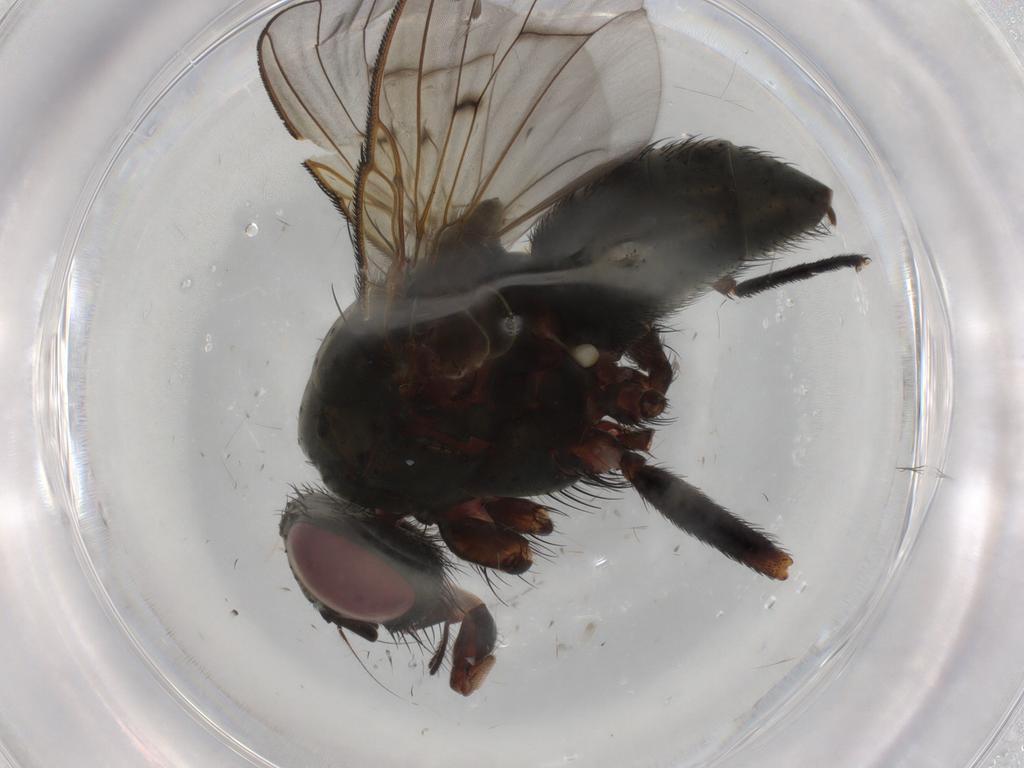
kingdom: Animalia
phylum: Arthropoda
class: Insecta
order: Diptera
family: Muscidae
